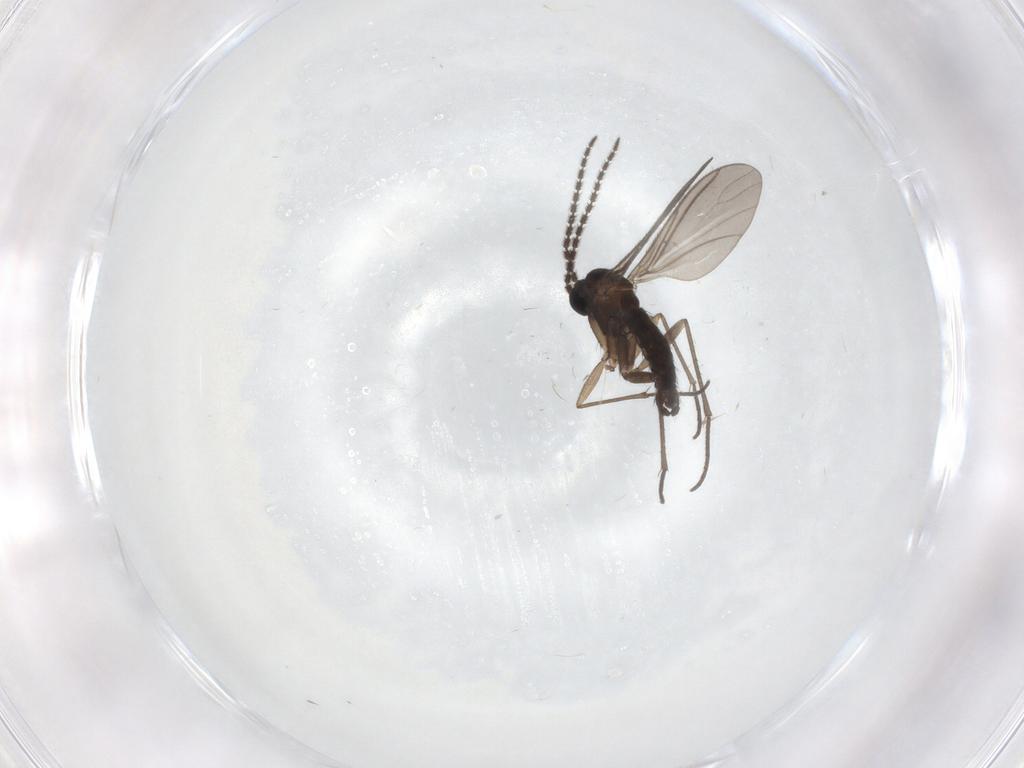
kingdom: Animalia
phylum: Arthropoda
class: Insecta
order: Diptera
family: Sciaridae
